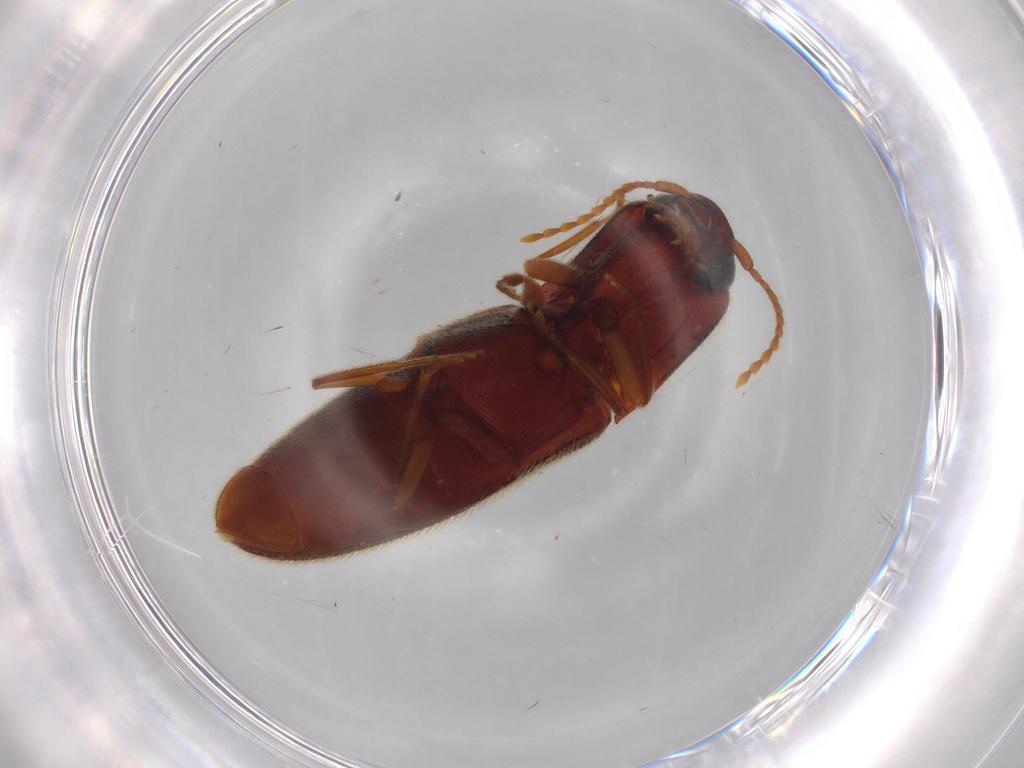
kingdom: Animalia
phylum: Arthropoda
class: Insecta
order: Coleoptera
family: Elateridae
